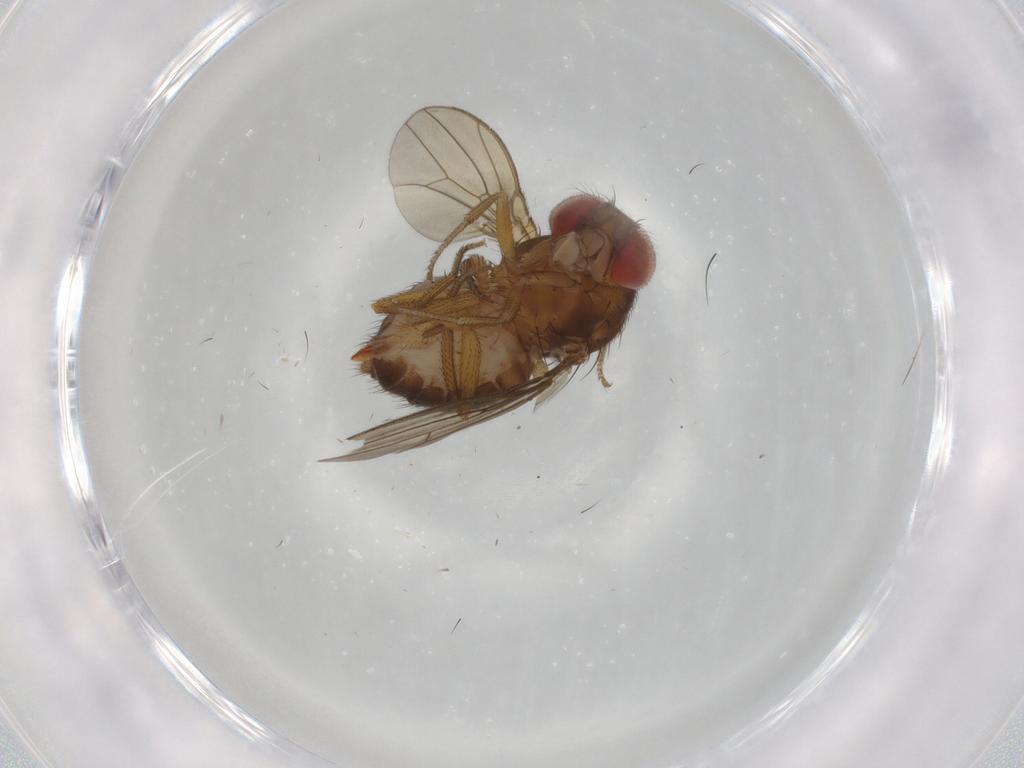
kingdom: Animalia
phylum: Arthropoda
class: Insecta
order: Diptera
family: Drosophilidae
